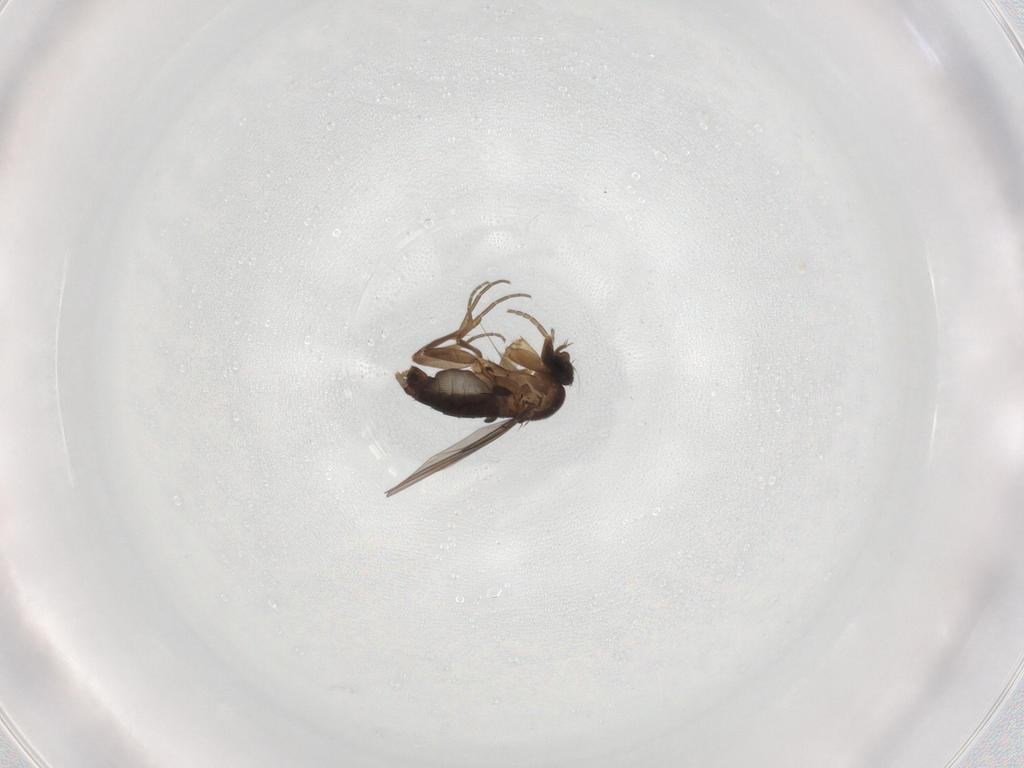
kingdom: Animalia
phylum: Arthropoda
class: Insecta
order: Diptera
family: Phoridae
